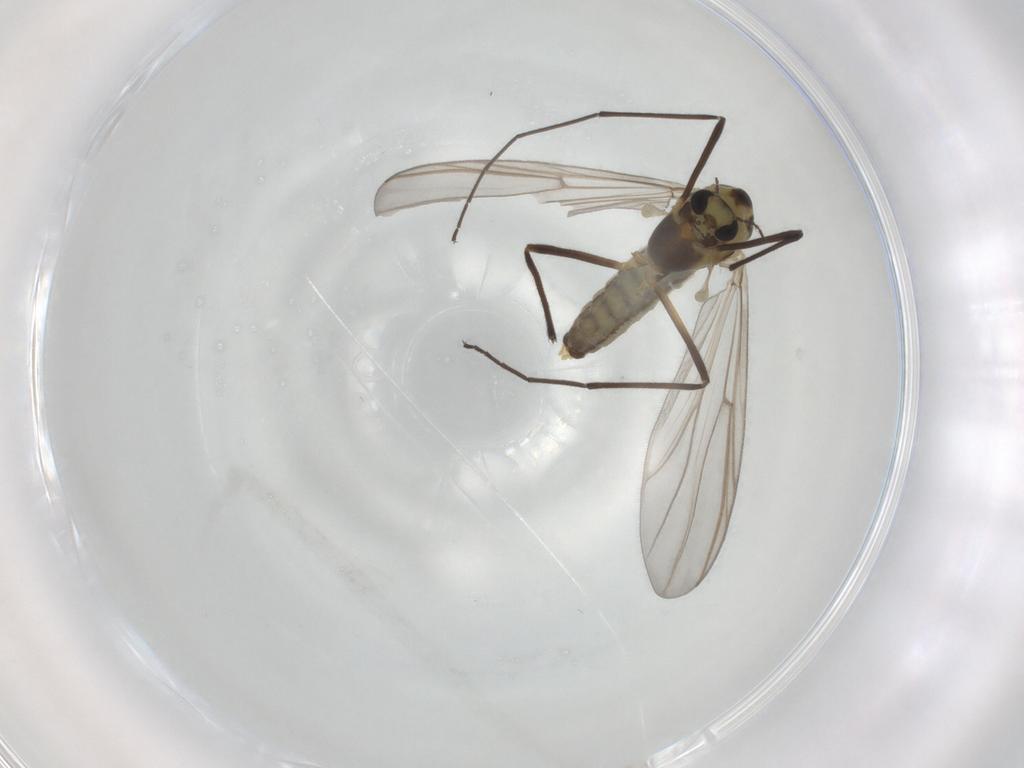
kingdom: Animalia
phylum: Arthropoda
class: Insecta
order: Diptera
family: Chironomidae
